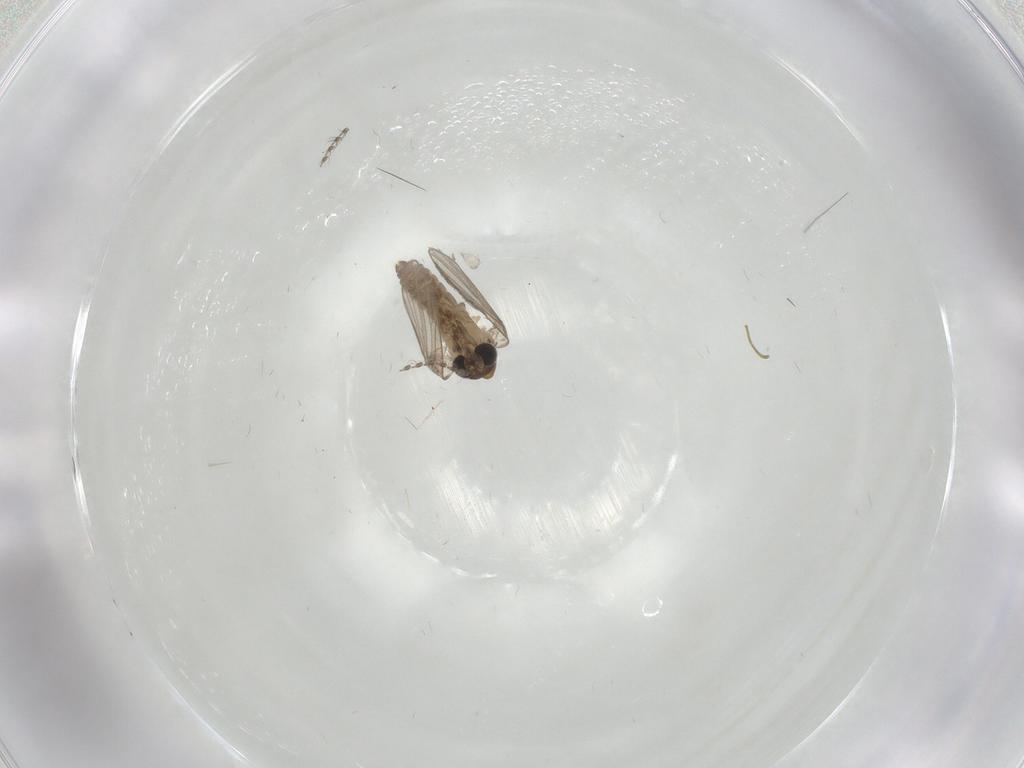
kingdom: Animalia
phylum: Arthropoda
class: Insecta
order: Diptera
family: Psychodidae
